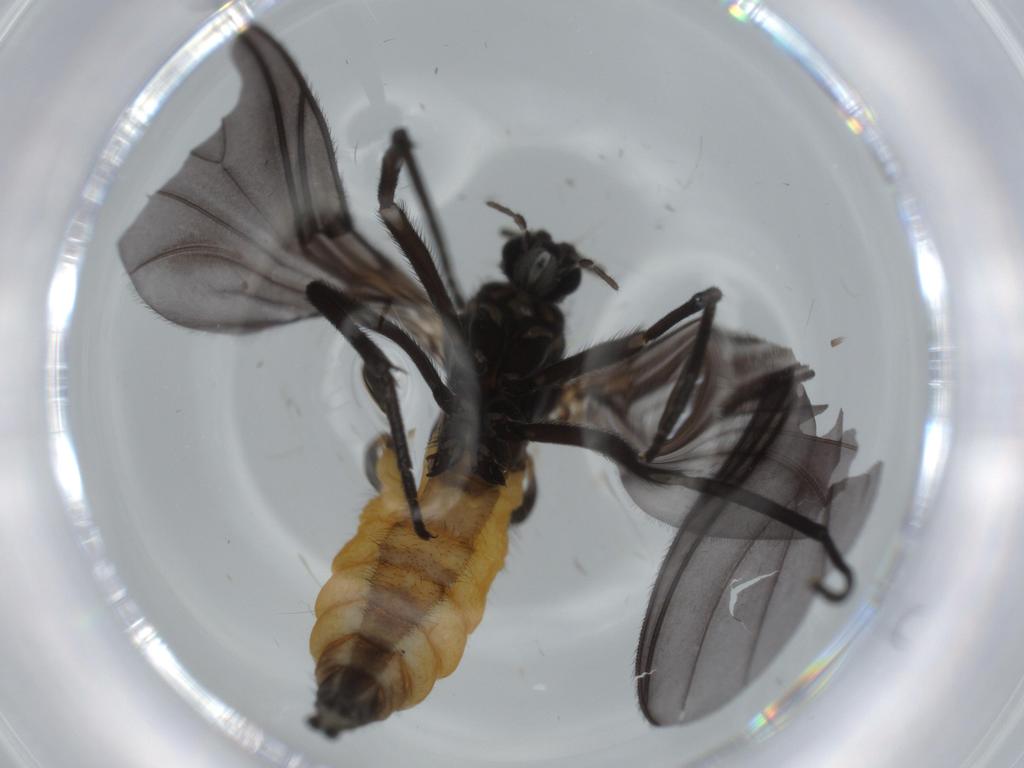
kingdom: Animalia
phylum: Arthropoda
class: Insecta
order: Diptera
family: Cecidomyiidae
